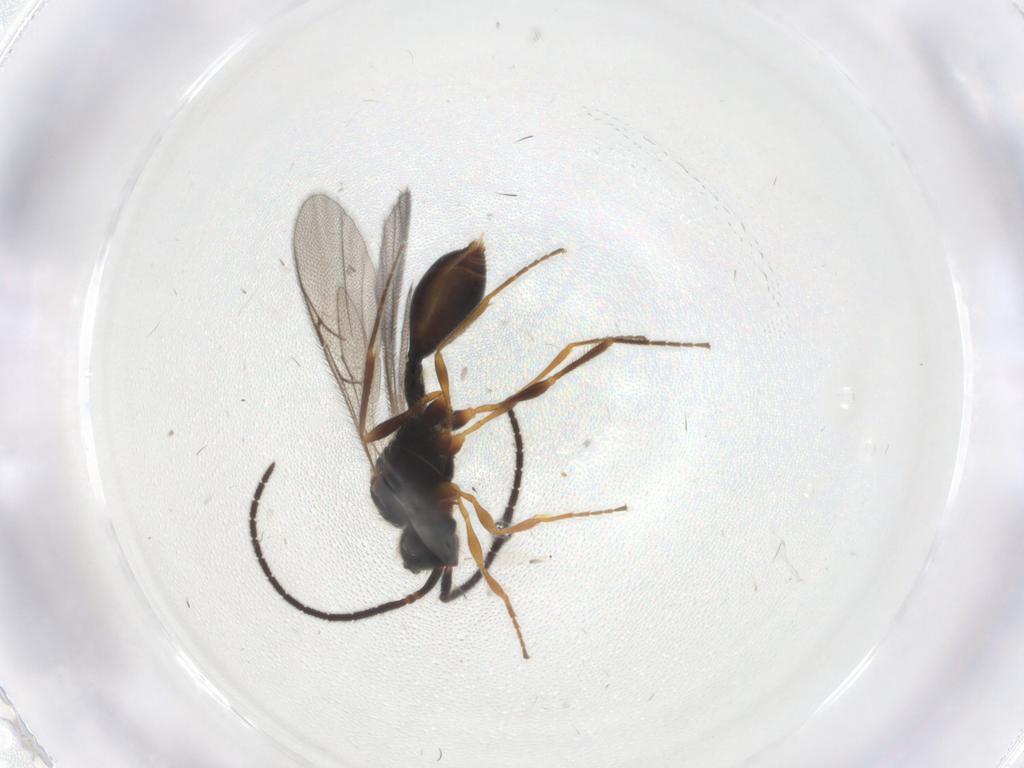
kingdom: Animalia
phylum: Arthropoda
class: Insecta
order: Hymenoptera
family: Diapriidae
